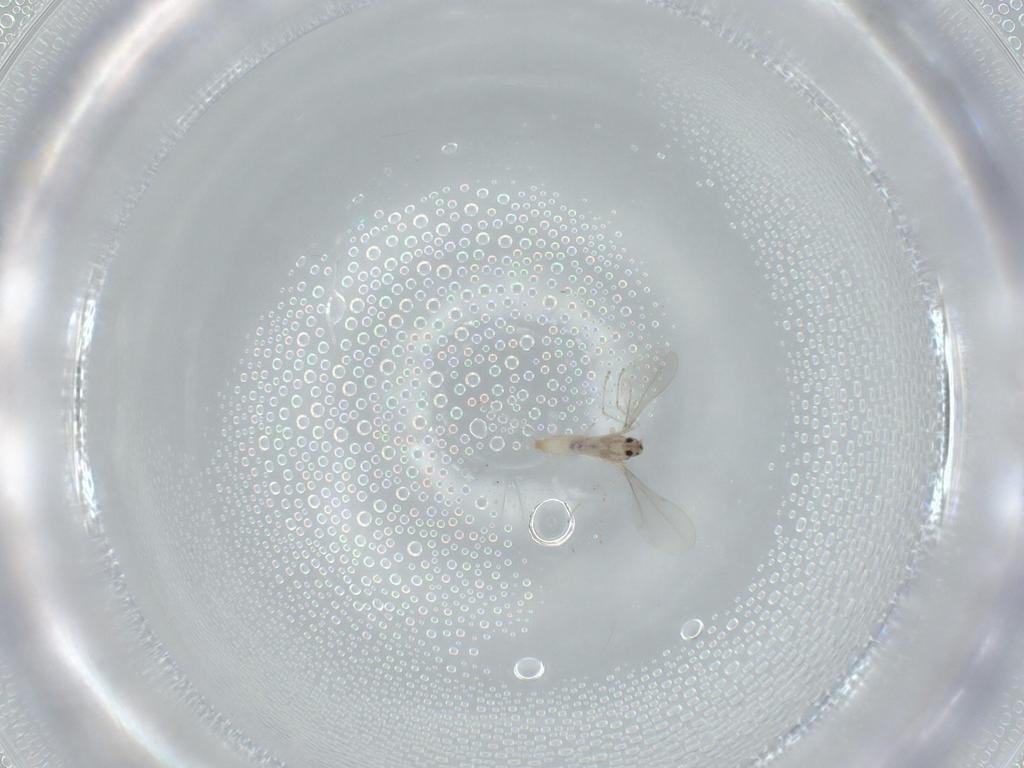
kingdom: Animalia
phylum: Arthropoda
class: Insecta
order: Diptera
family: Cecidomyiidae
